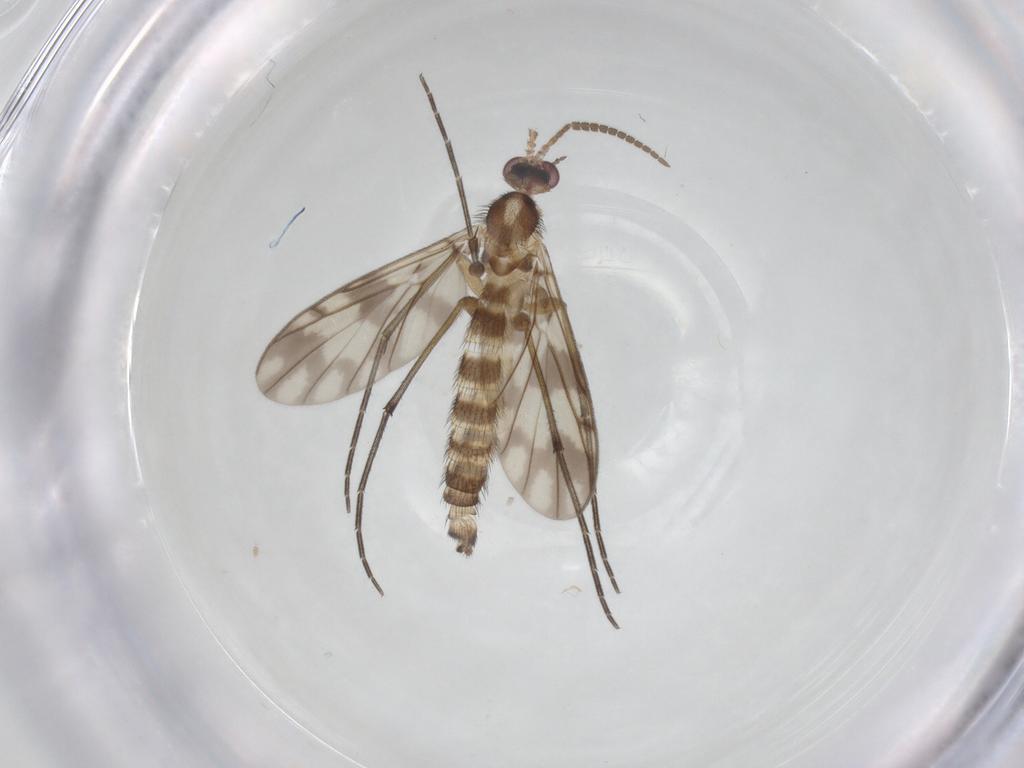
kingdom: Animalia
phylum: Arthropoda
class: Insecta
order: Diptera
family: Keroplatidae
